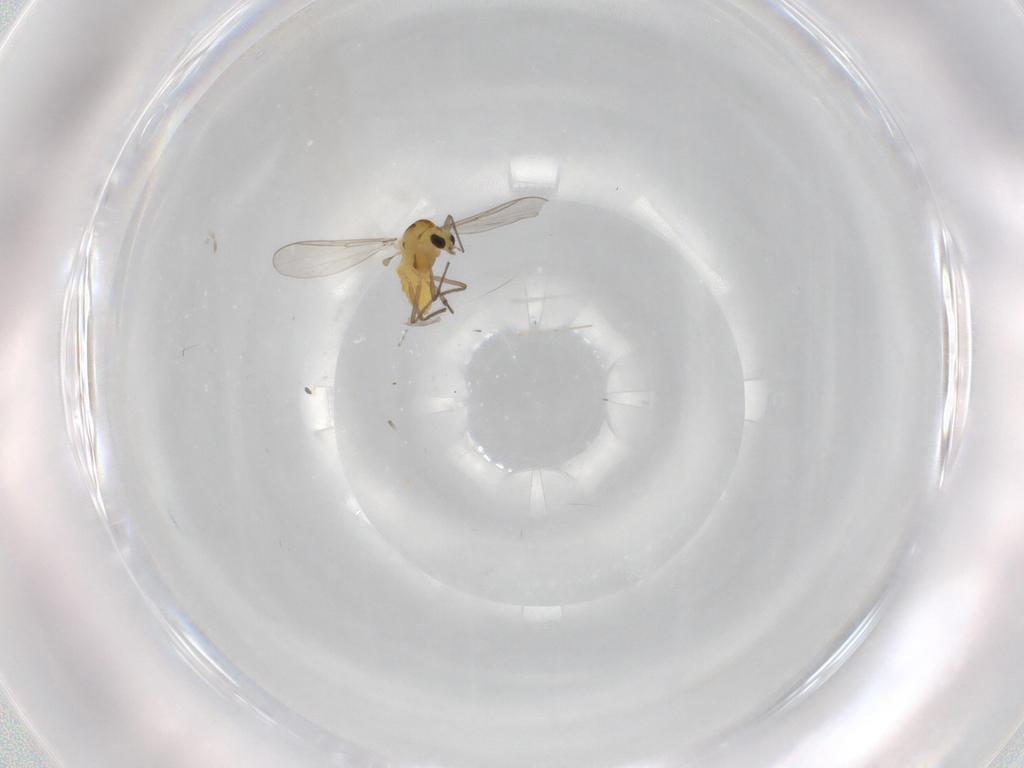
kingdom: Animalia
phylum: Arthropoda
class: Insecta
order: Diptera
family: Chironomidae
